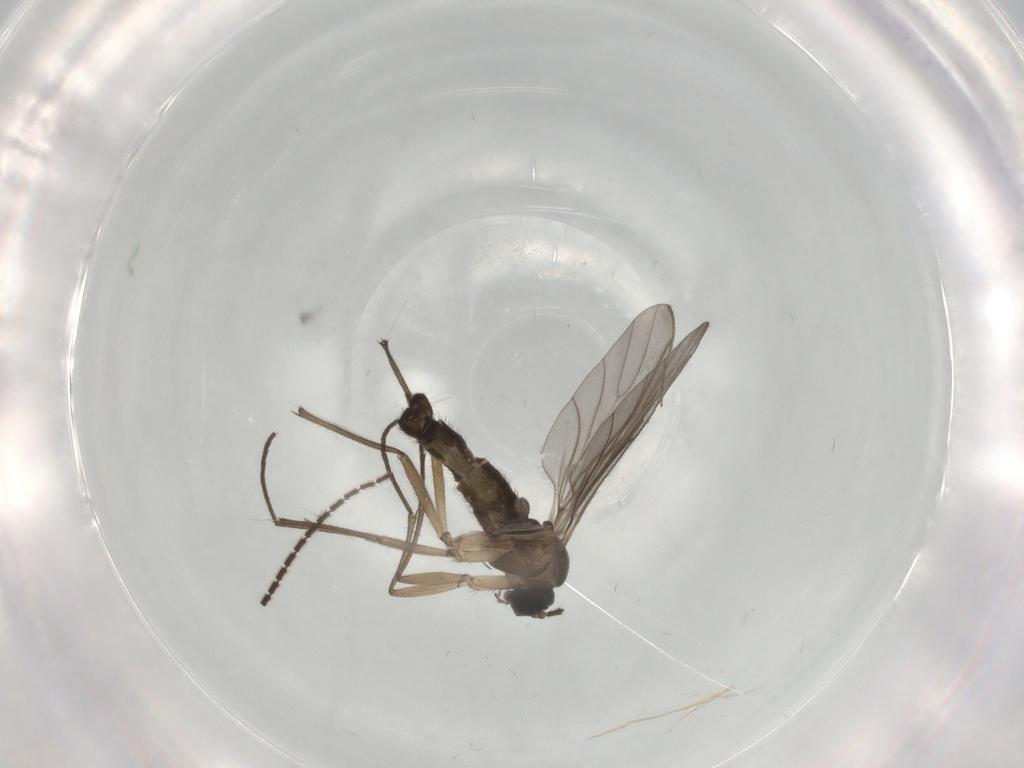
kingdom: Animalia
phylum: Arthropoda
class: Insecta
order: Diptera
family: Sciaridae
